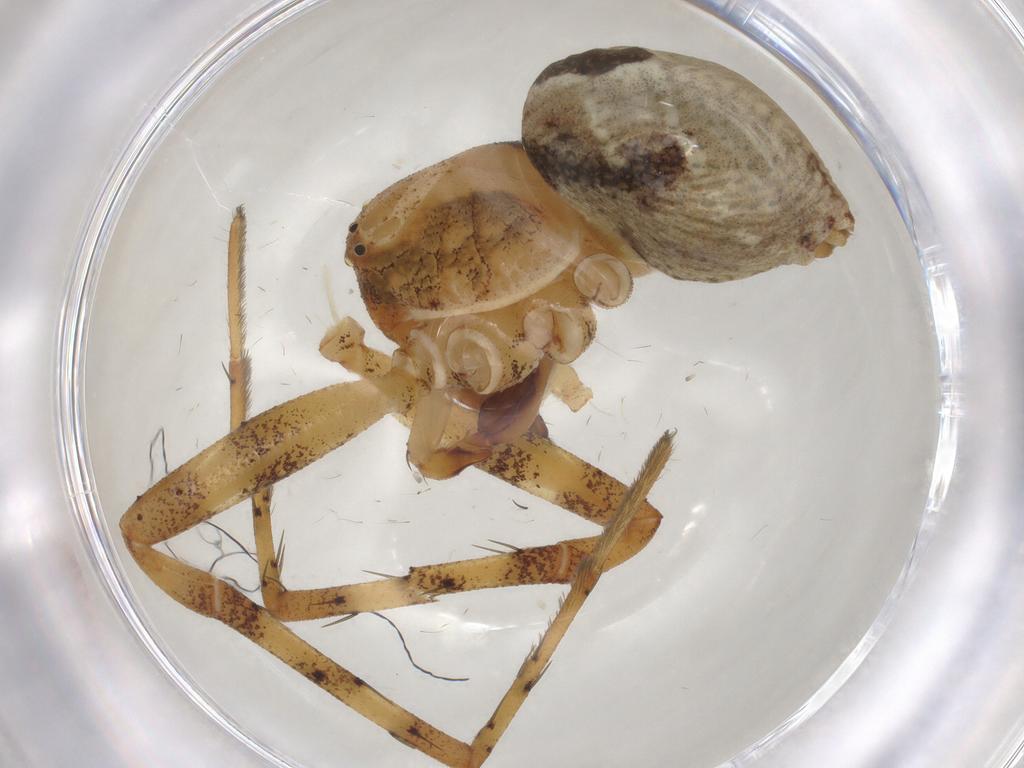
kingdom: Animalia
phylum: Arthropoda
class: Arachnida
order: Araneae
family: Philodromidae
